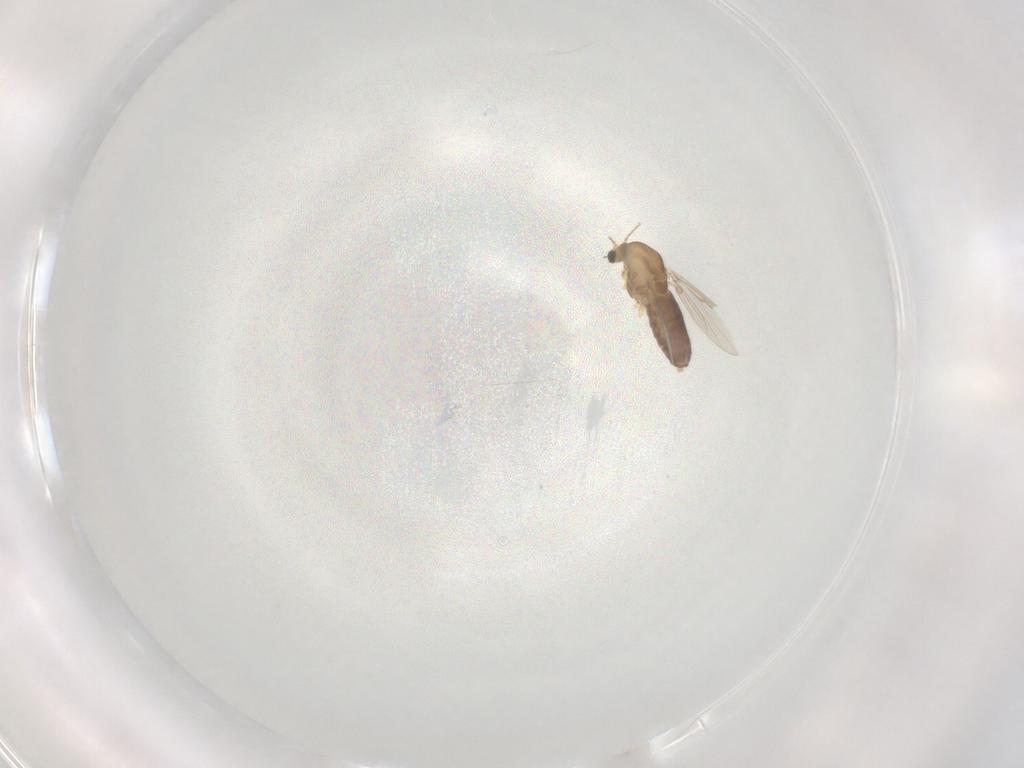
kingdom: Animalia
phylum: Arthropoda
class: Insecta
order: Diptera
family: Chironomidae
